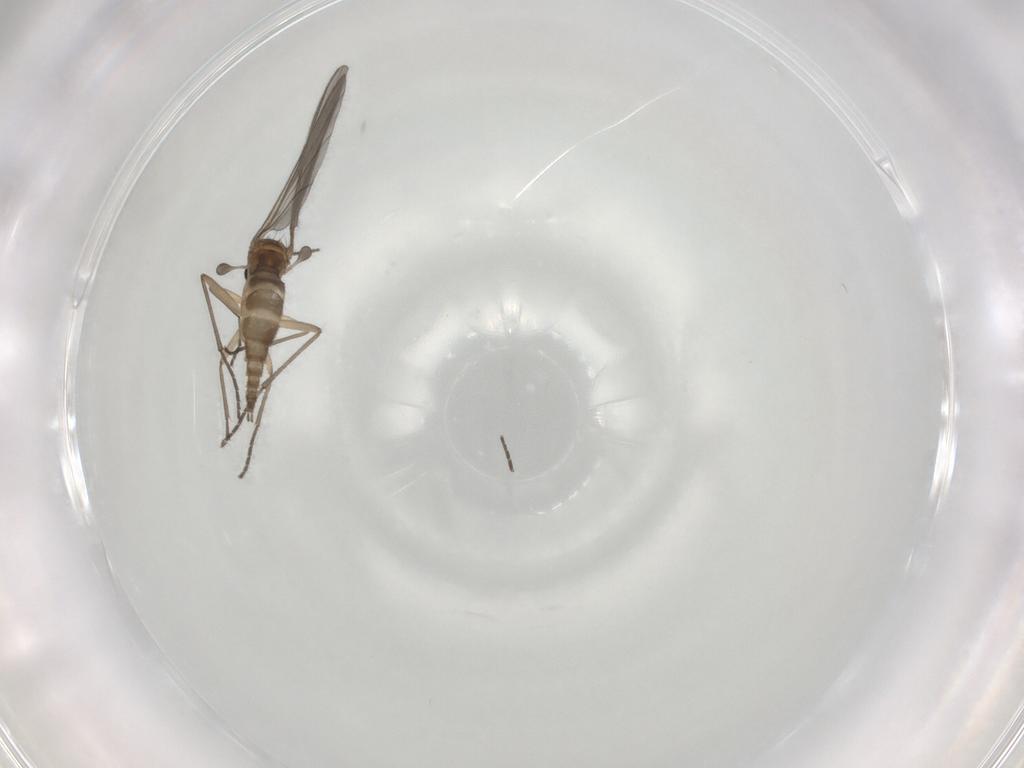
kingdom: Animalia
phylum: Arthropoda
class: Insecta
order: Diptera
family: Sciaridae
